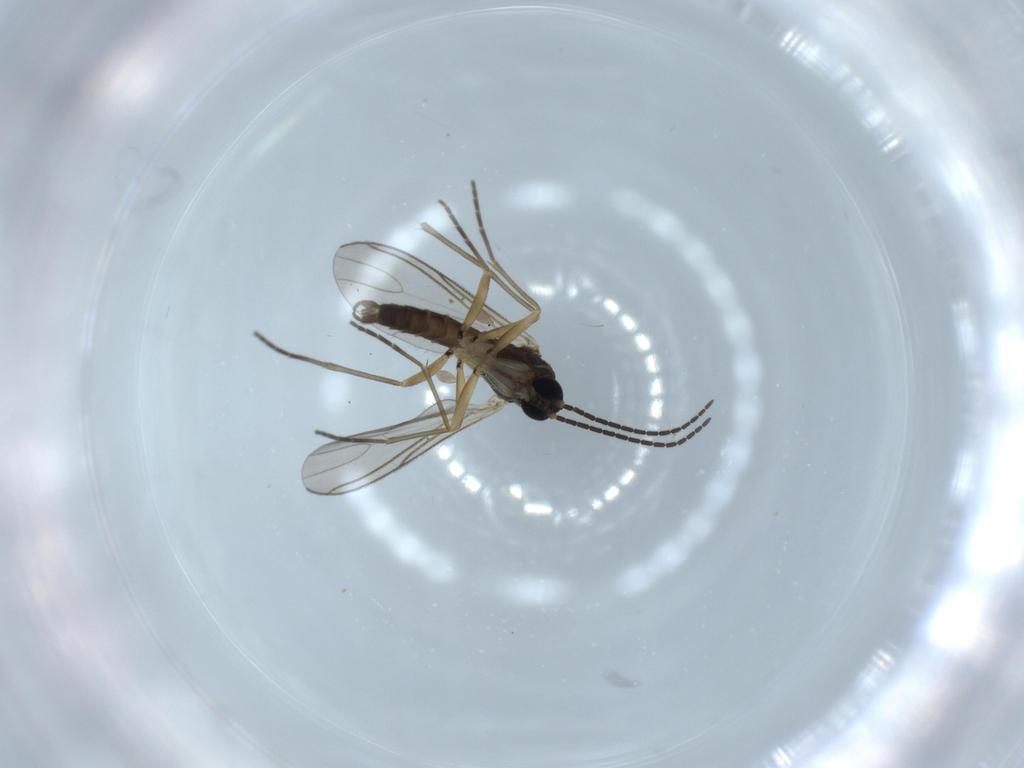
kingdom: Animalia
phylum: Arthropoda
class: Insecta
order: Diptera
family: Sciaridae
